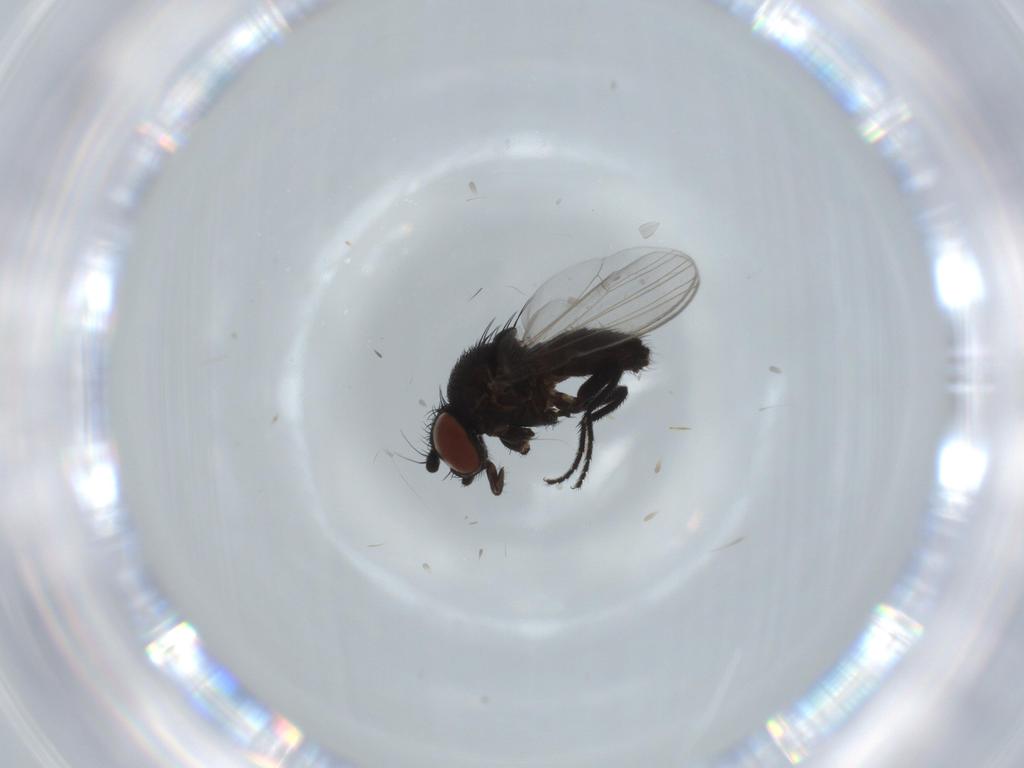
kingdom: Animalia
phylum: Arthropoda
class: Insecta
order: Diptera
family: Milichiidae
